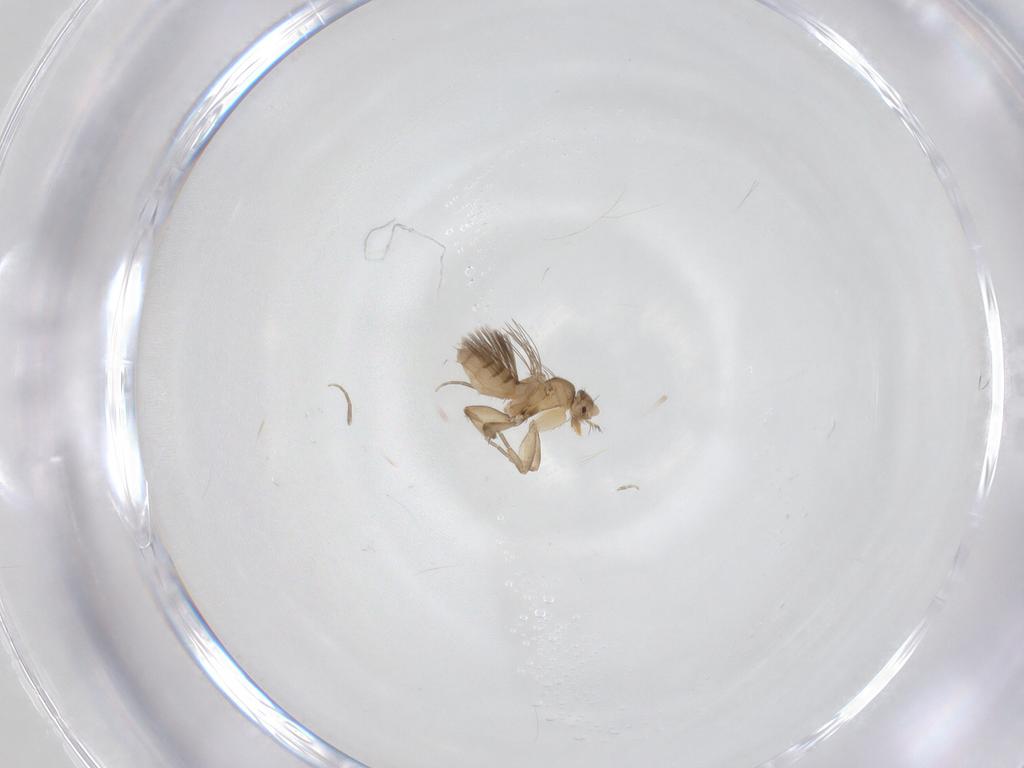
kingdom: Animalia
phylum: Arthropoda
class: Insecta
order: Diptera
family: Phoridae
